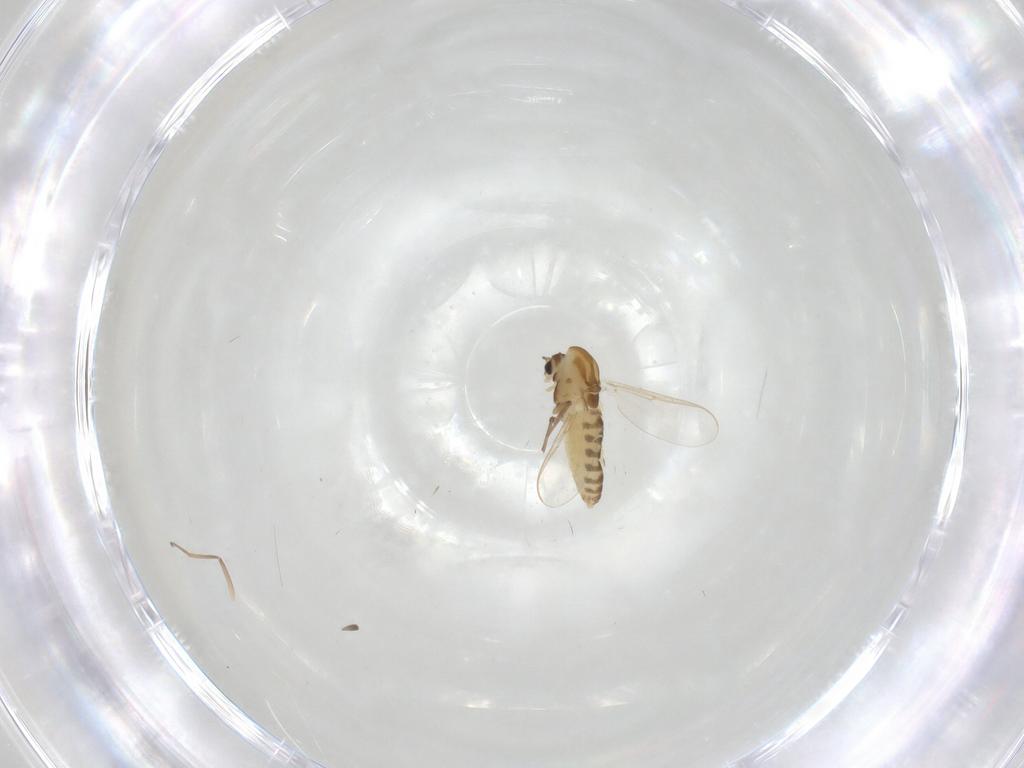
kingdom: Animalia
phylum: Arthropoda
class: Insecta
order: Diptera
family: Chironomidae
